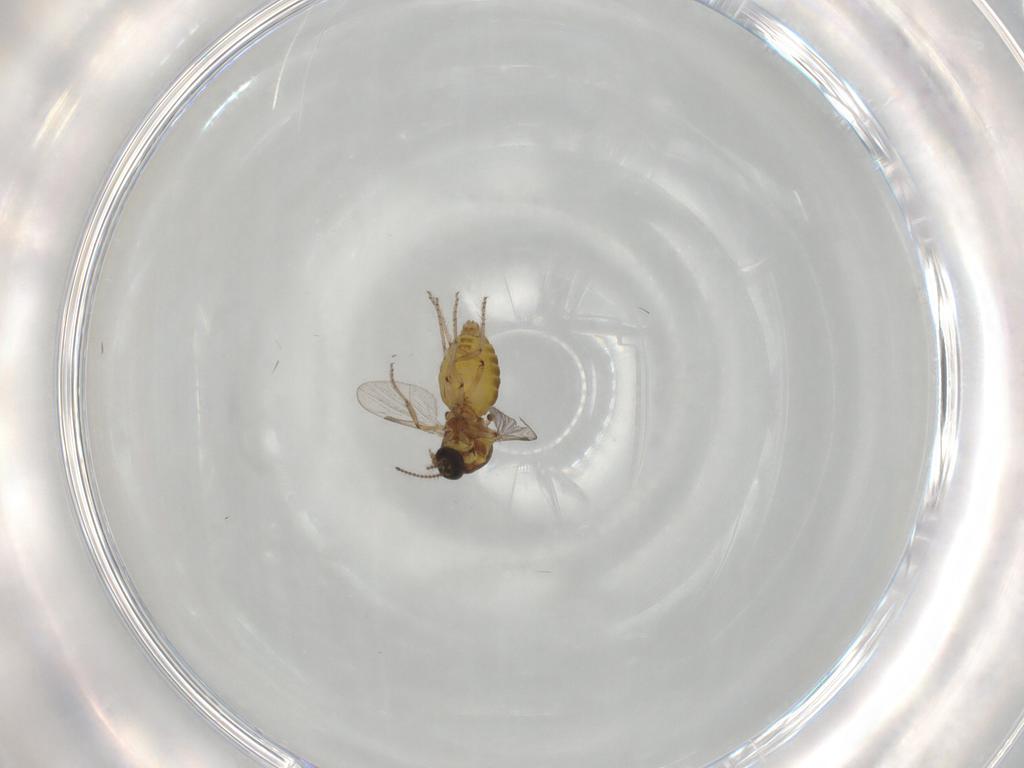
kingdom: Animalia
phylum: Arthropoda
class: Insecta
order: Diptera
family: Ceratopogonidae
